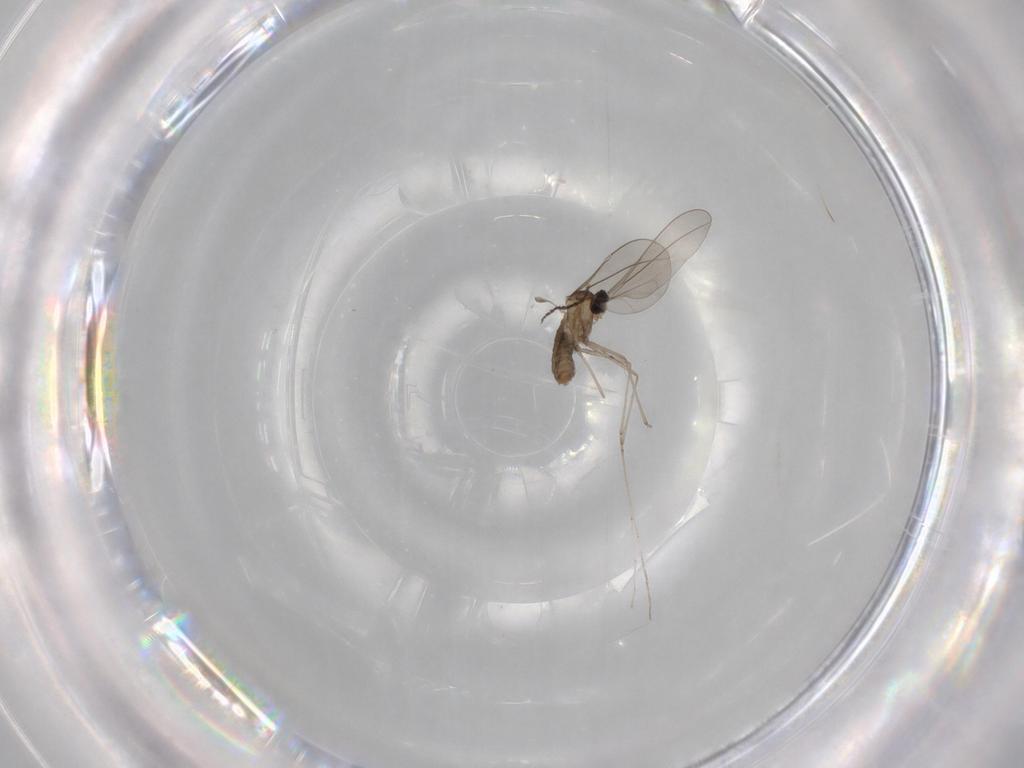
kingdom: Animalia
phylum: Arthropoda
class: Insecta
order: Diptera
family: Cecidomyiidae
